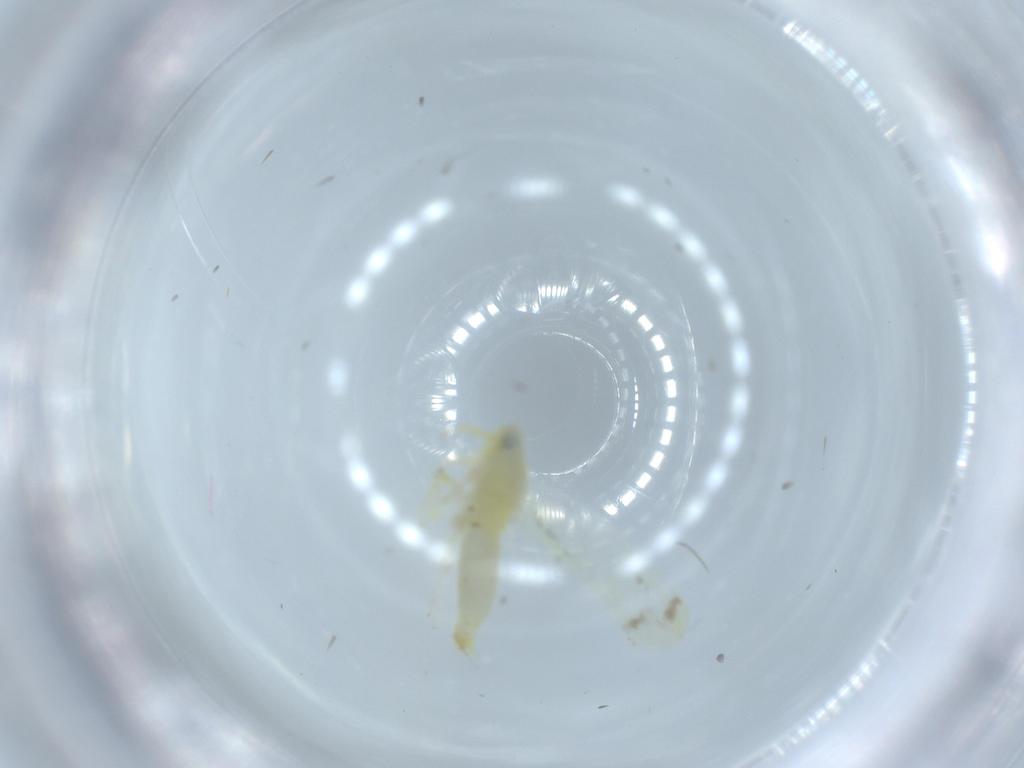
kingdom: Animalia
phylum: Arthropoda
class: Insecta
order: Hemiptera
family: Cicadellidae
